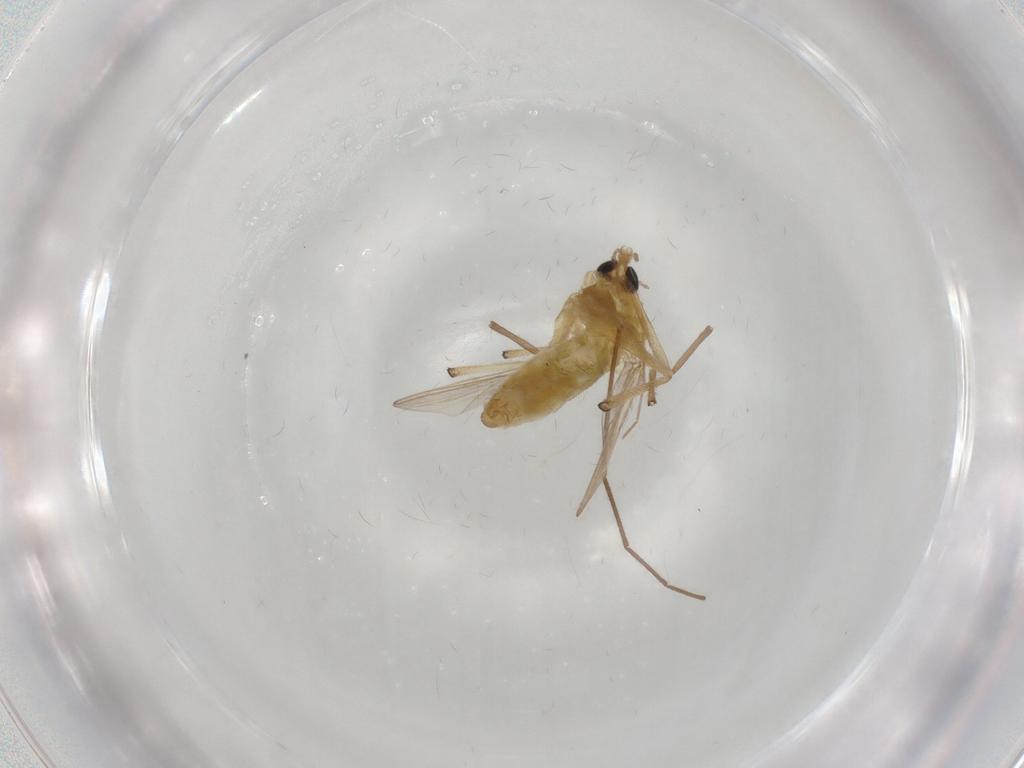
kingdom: Animalia
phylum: Arthropoda
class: Insecta
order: Diptera
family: Chironomidae
